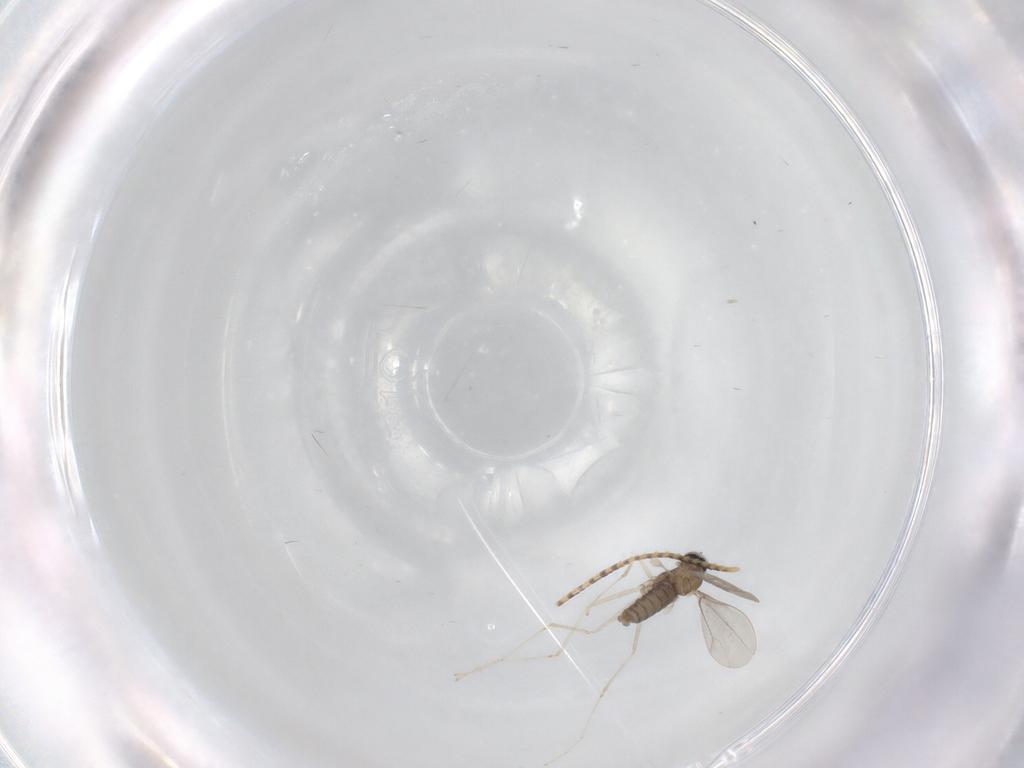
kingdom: Animalia
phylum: Arthropoda
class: Insecta
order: Diptera
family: Cecidomyiidae
